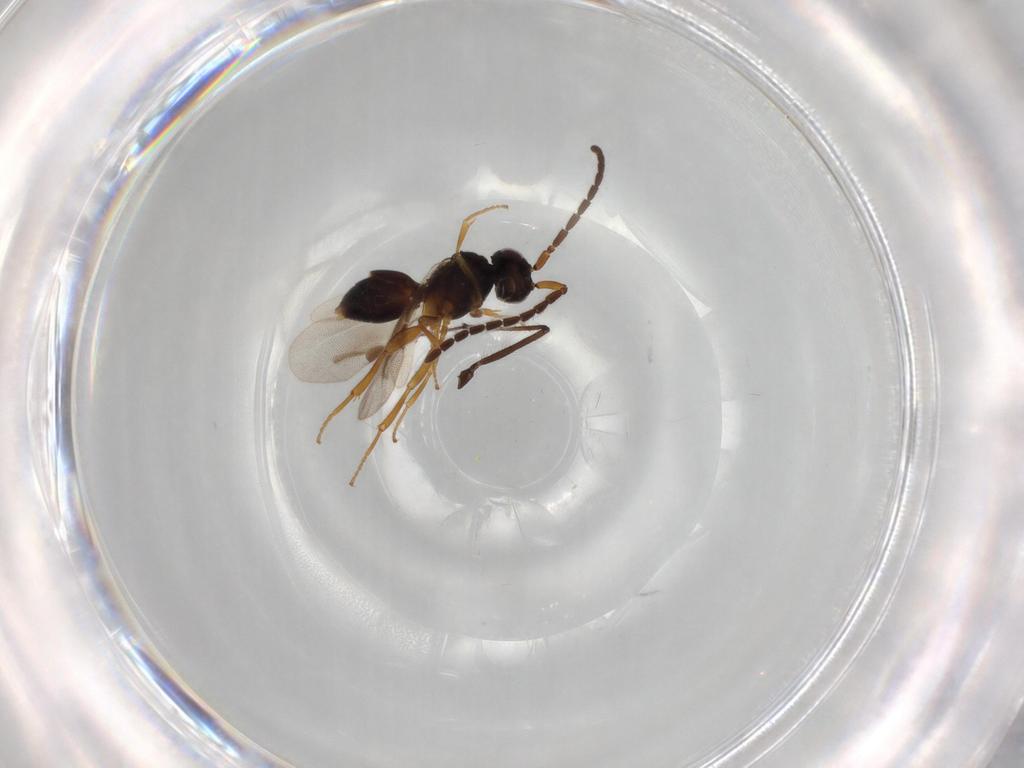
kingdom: Animalia
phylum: Arthropoda
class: Insecta
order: Hymenoptera
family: Megaspilidae
